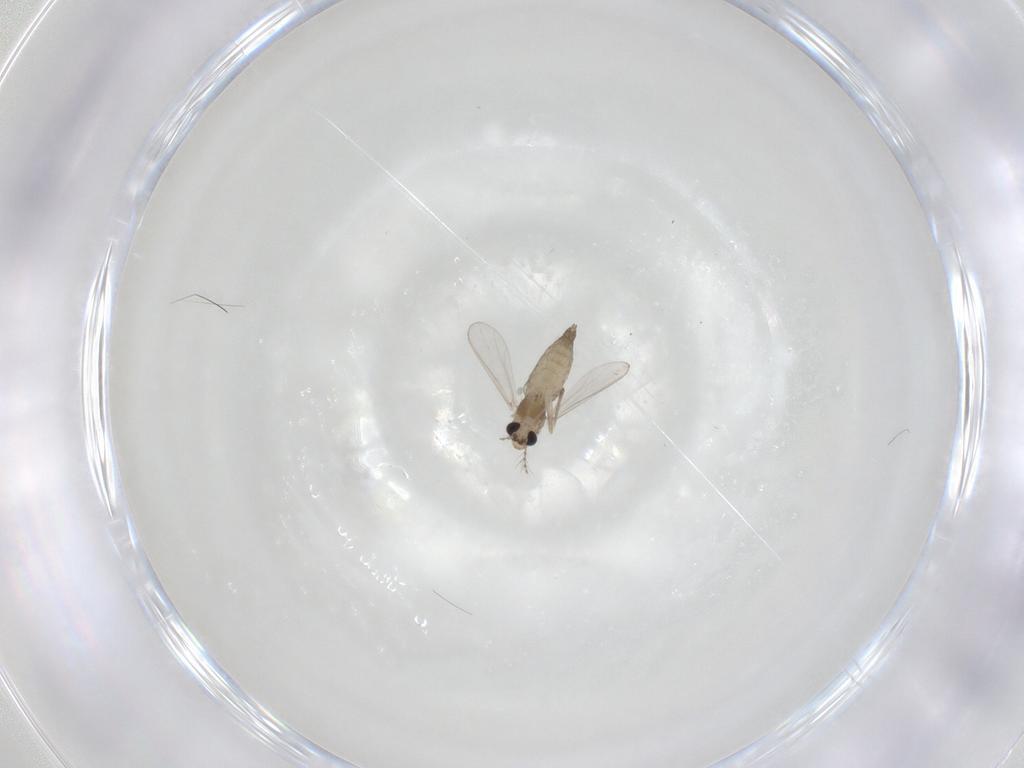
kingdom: Animalia
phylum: Arthropoda
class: Insecta
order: Diptera
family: Chironomidae
